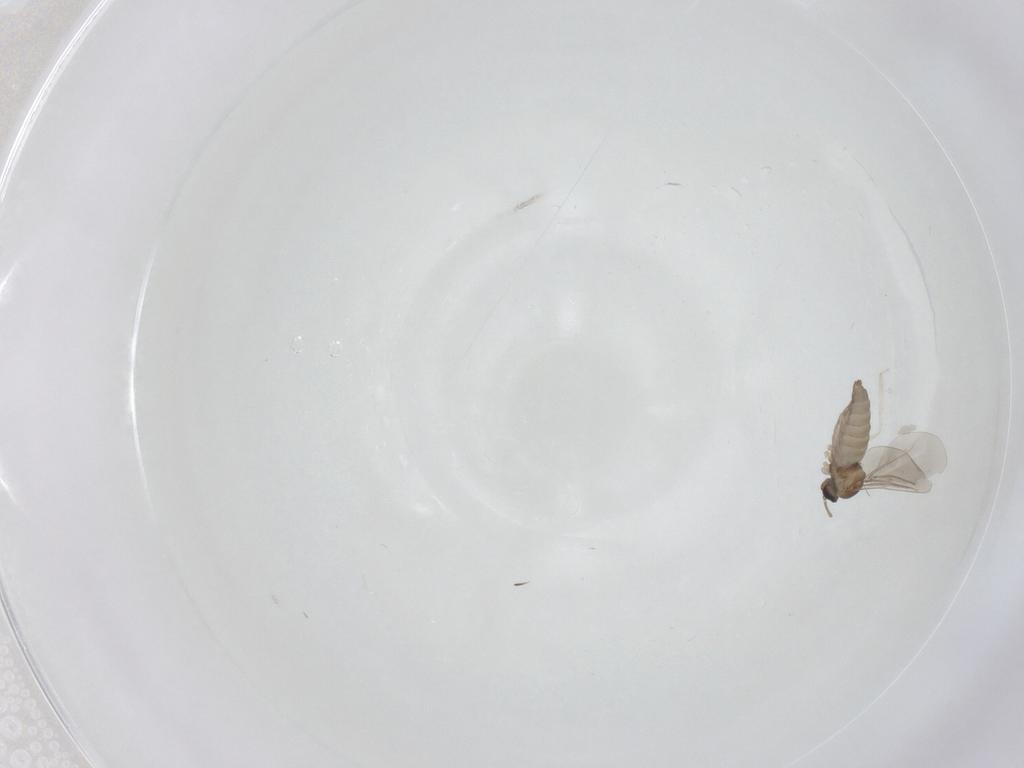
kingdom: Animalia
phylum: Arthropoda
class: Insecta
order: Diptera
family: Cecidomyiidae
